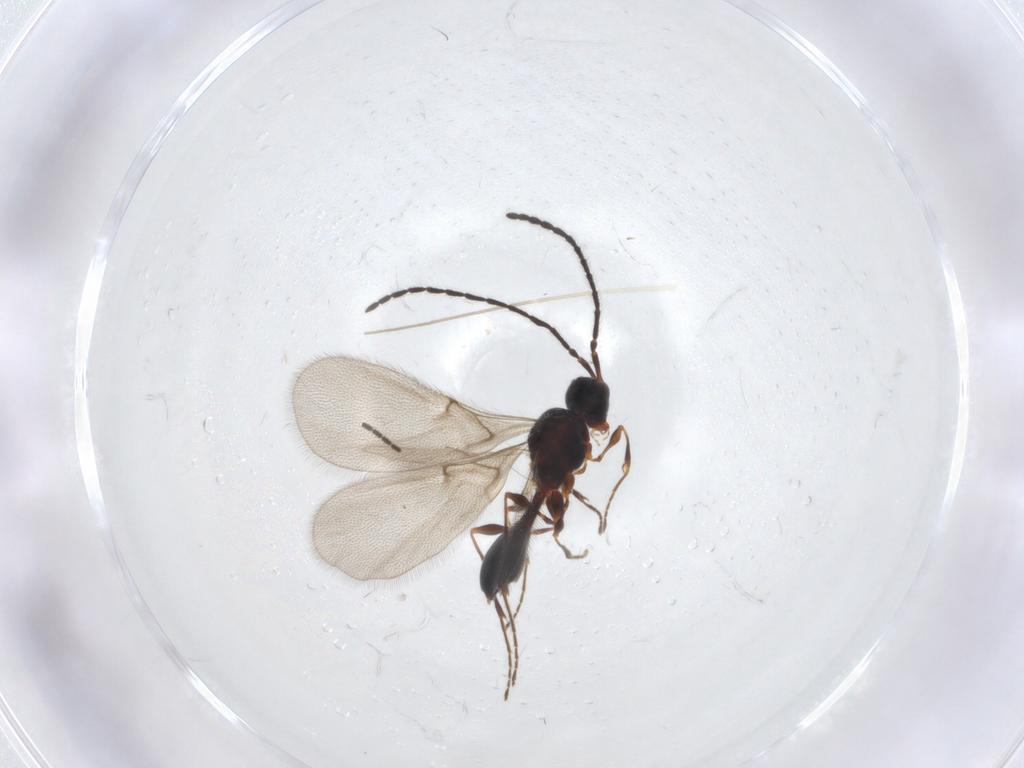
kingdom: Animalia
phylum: Arthropoda
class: Insecta
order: Hymenoptera
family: Diapriidae
